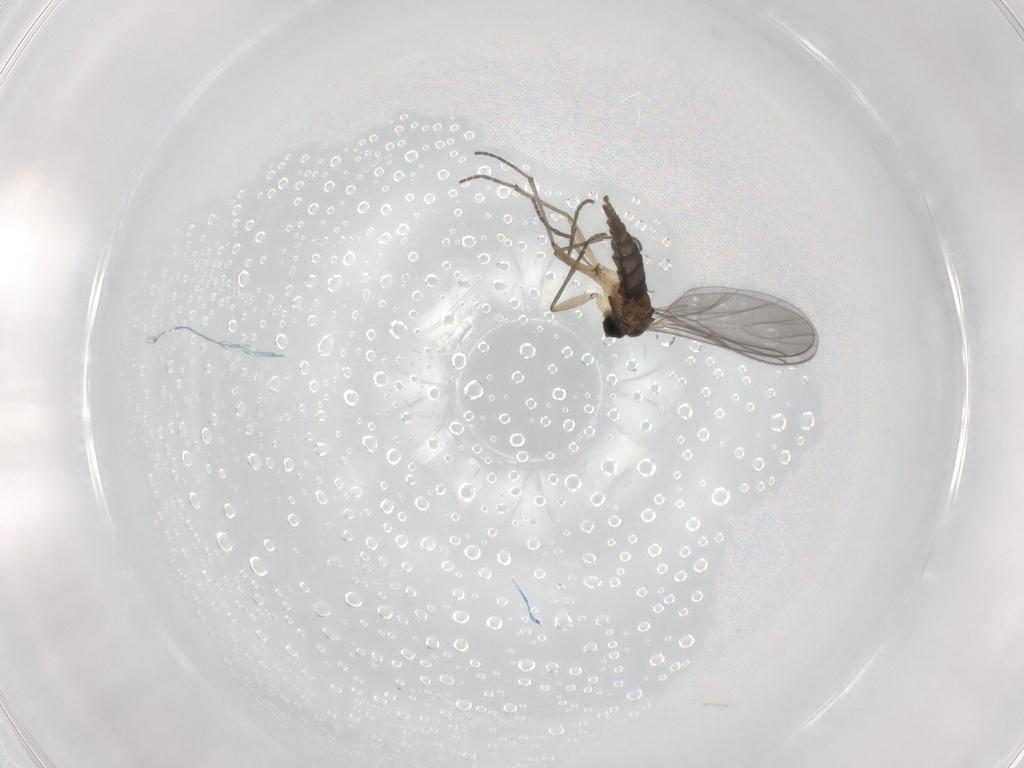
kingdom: Animalia
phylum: Arthropoda
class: Insecta
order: Diptera
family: Sciaridae
